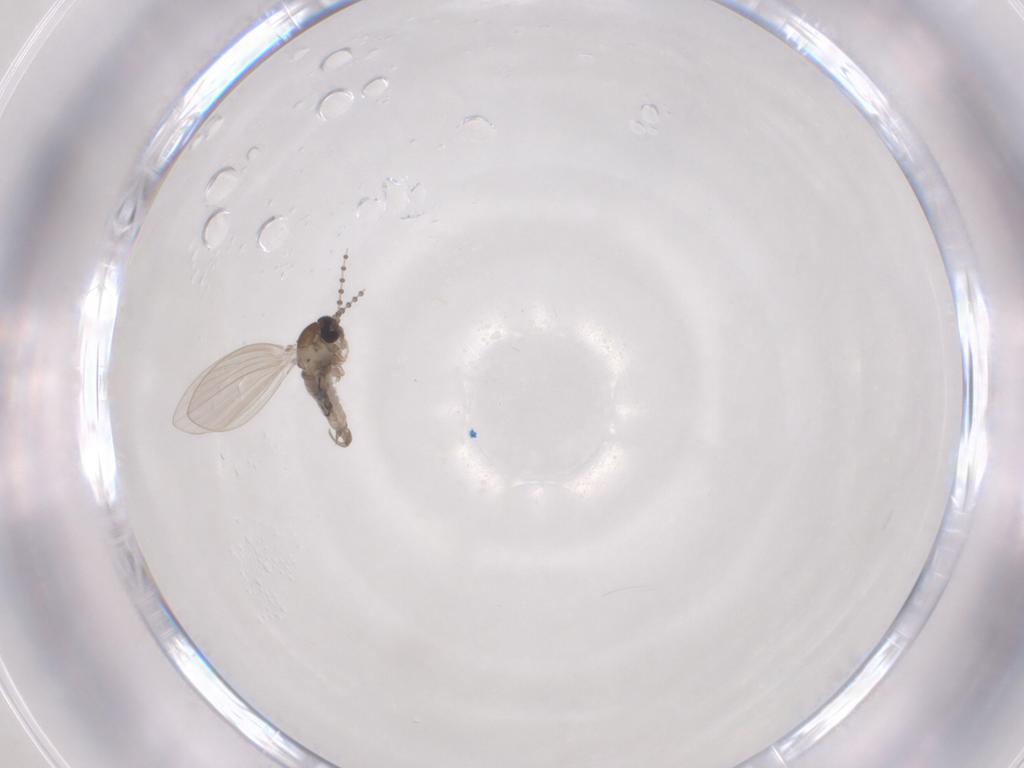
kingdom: Animalia
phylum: Arthropoda
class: Insecta
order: Diptera
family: Psychodidae
